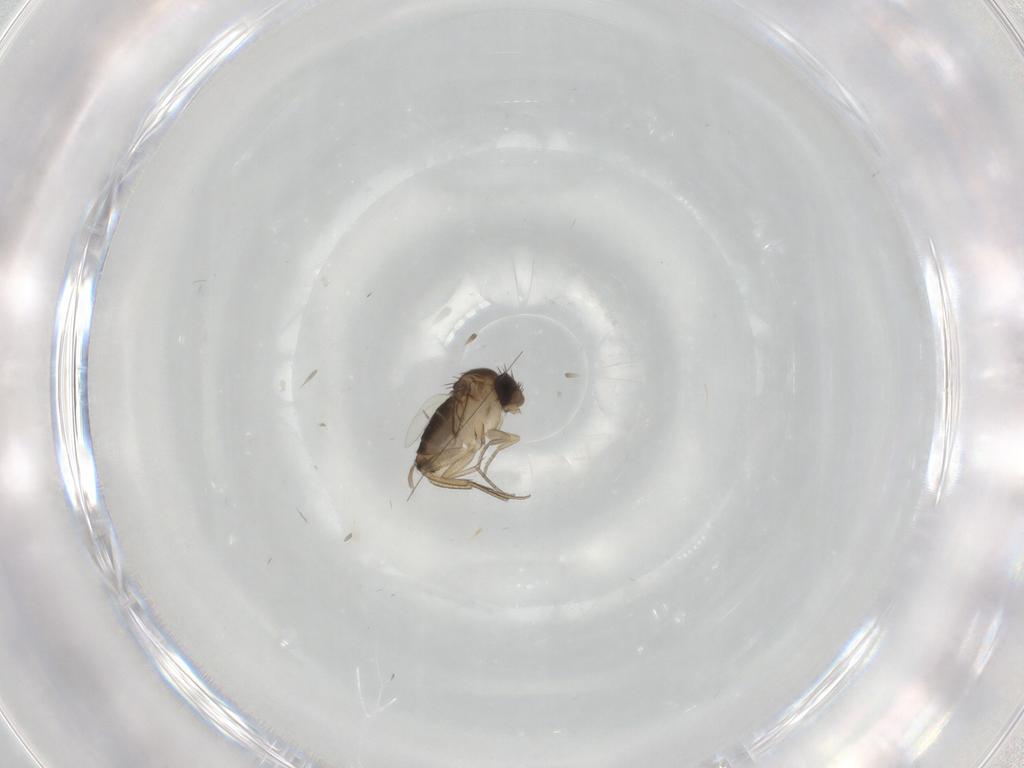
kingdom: Animalia
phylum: Arthropoda
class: Insecta
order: Diptera
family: Phoridae
